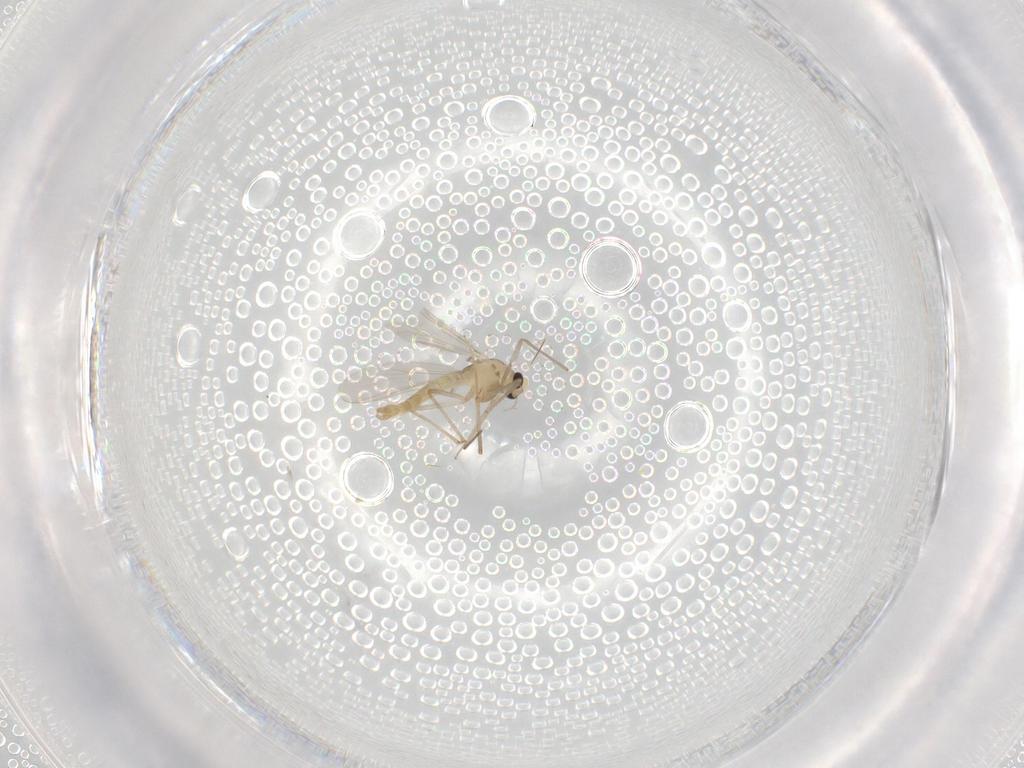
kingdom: Animalia
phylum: Arthropoda
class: Insecta
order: Diptera
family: Chironomidae
